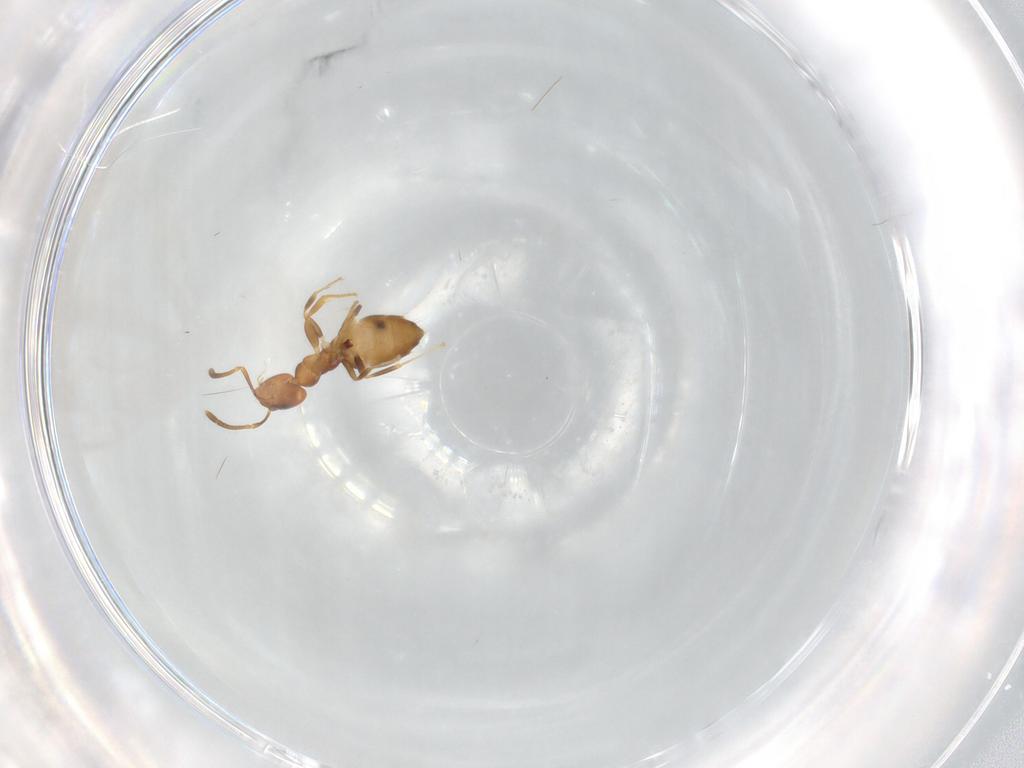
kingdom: Animalia
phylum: Arthropoda
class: Insecta
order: Hymenoptera
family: Formicidae
